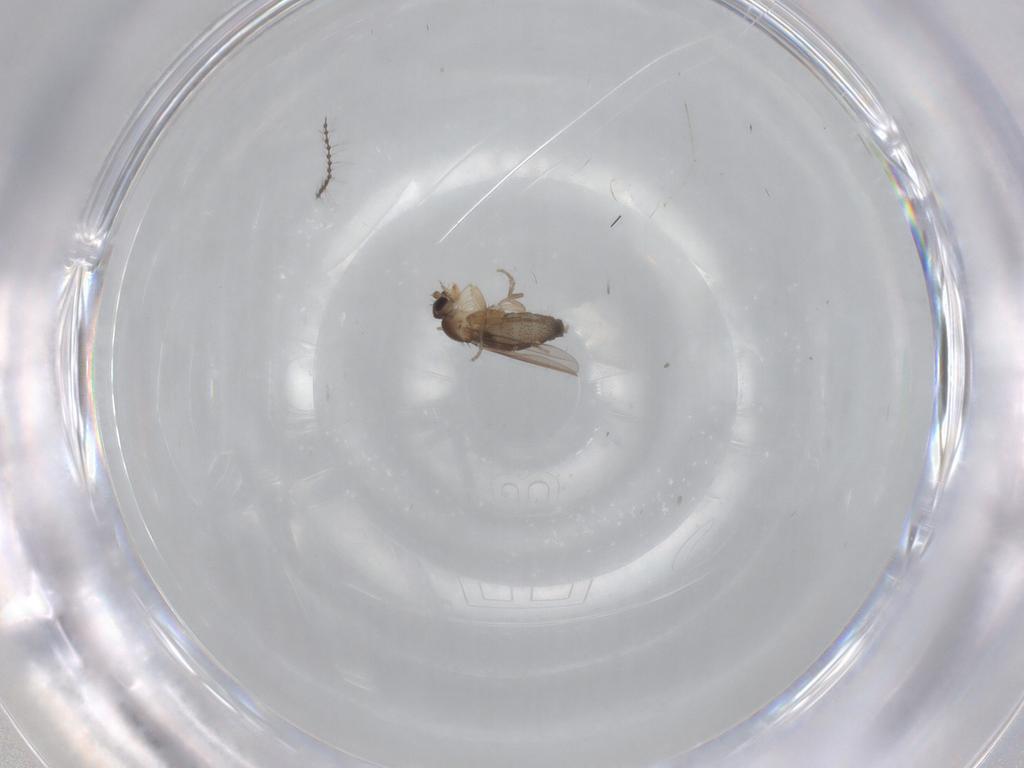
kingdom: Animalia
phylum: Arthropoda
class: Insecta
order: Diptera
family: Phoridae
